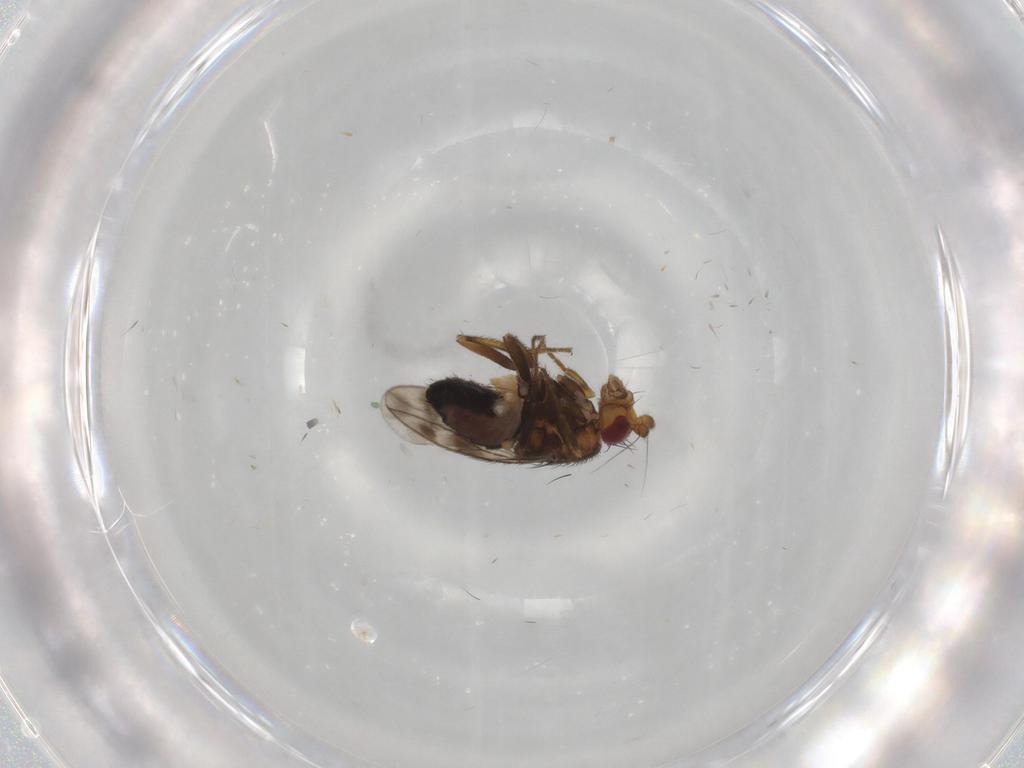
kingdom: Animalia
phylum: Arthropoda
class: Insecta
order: Diptera
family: Sphaeroceridae
